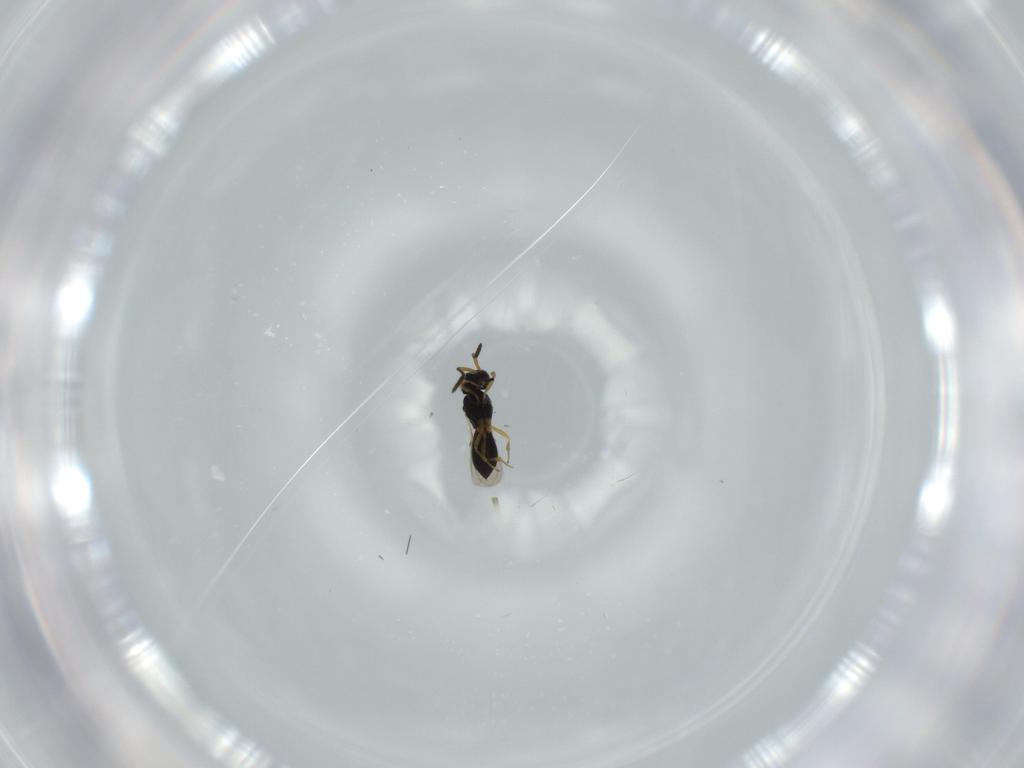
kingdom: Animalia
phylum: Arthropoda
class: Insecta
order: Hymenoptera
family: Scelionidae
